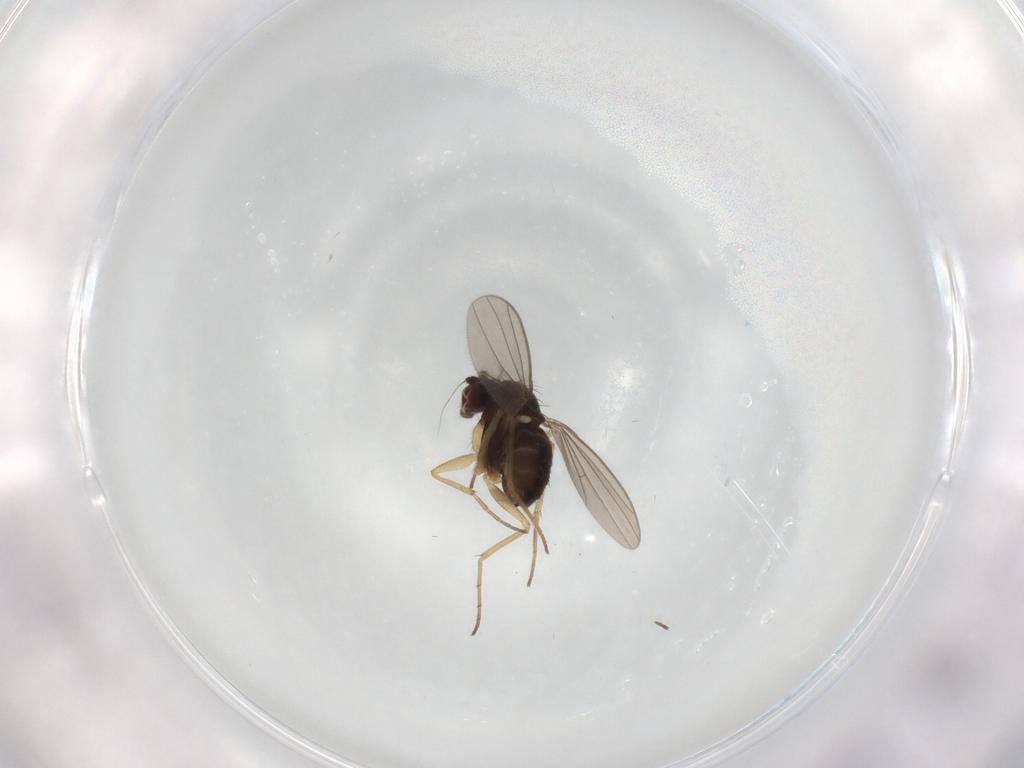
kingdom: Animalia
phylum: Arthropoda
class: Insecta
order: Diptera
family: Dolichopodidae
